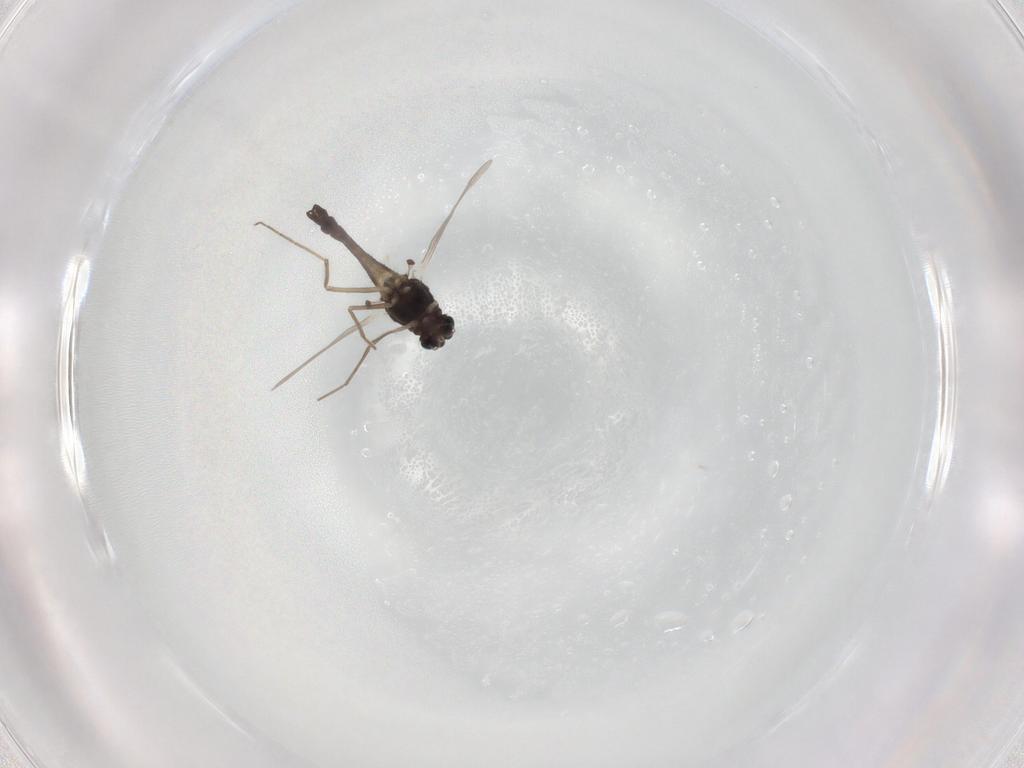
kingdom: Animalia
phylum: Arthropoda
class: Insecta
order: Diptera
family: Chironomidae
